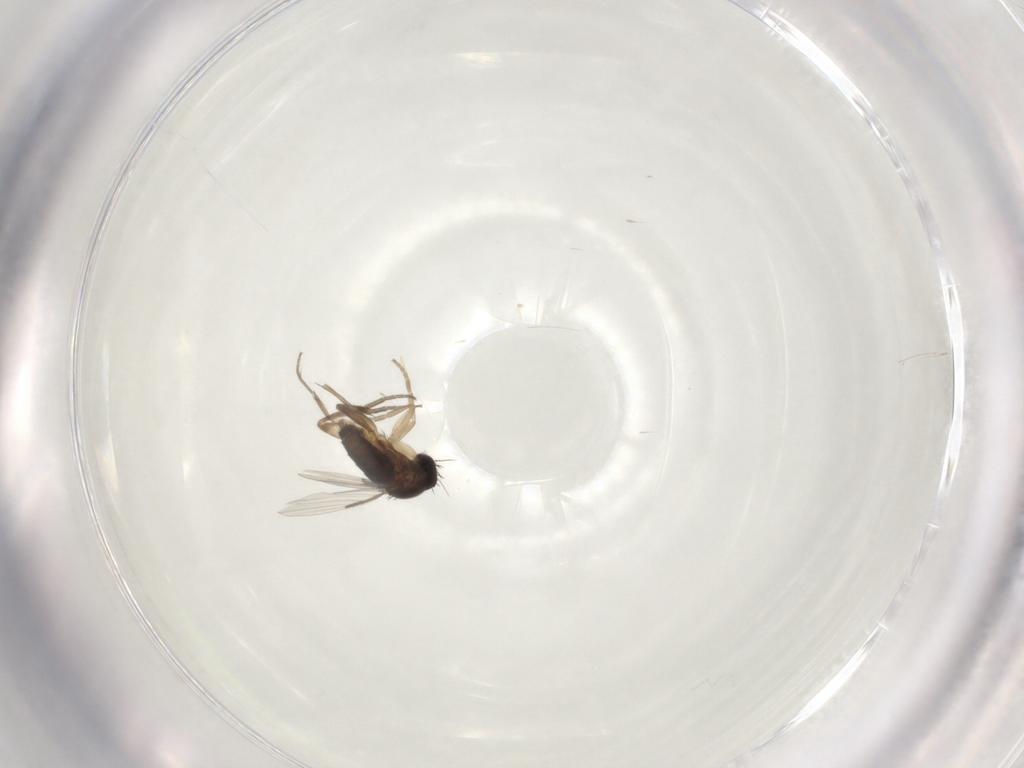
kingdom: Animalia
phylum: Arthropoda
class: Insecta
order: Diptera
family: Phoridae
